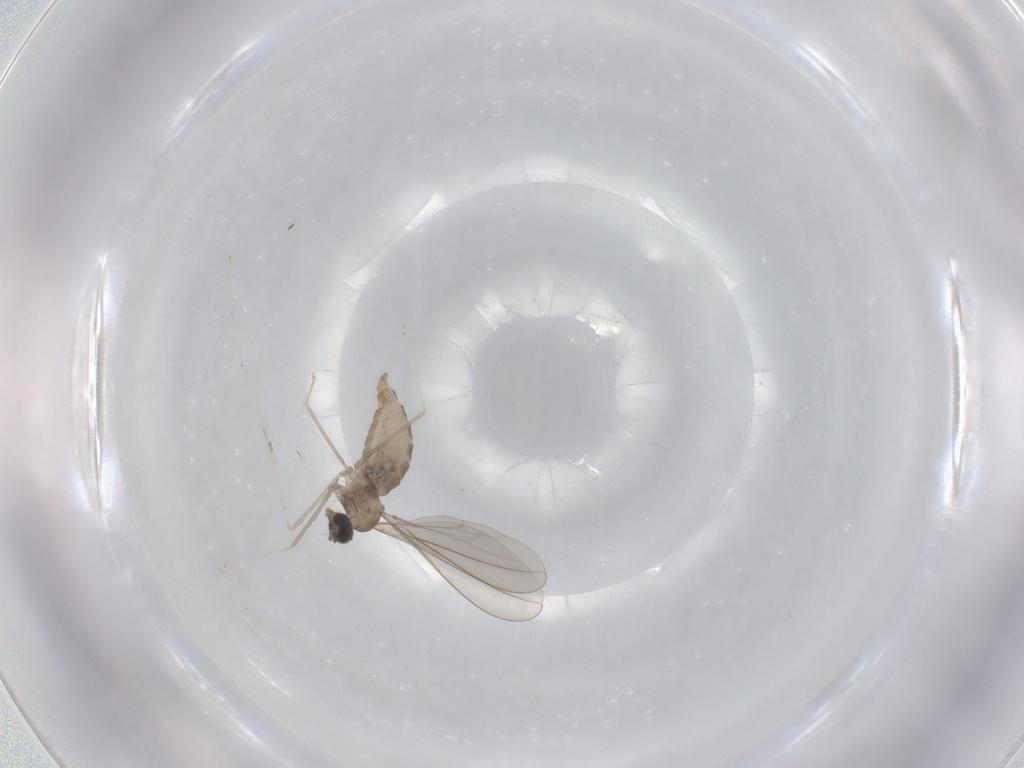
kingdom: Animalia
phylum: Arthropoda
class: Insecta
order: Diptera
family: Cecidomyiidae
